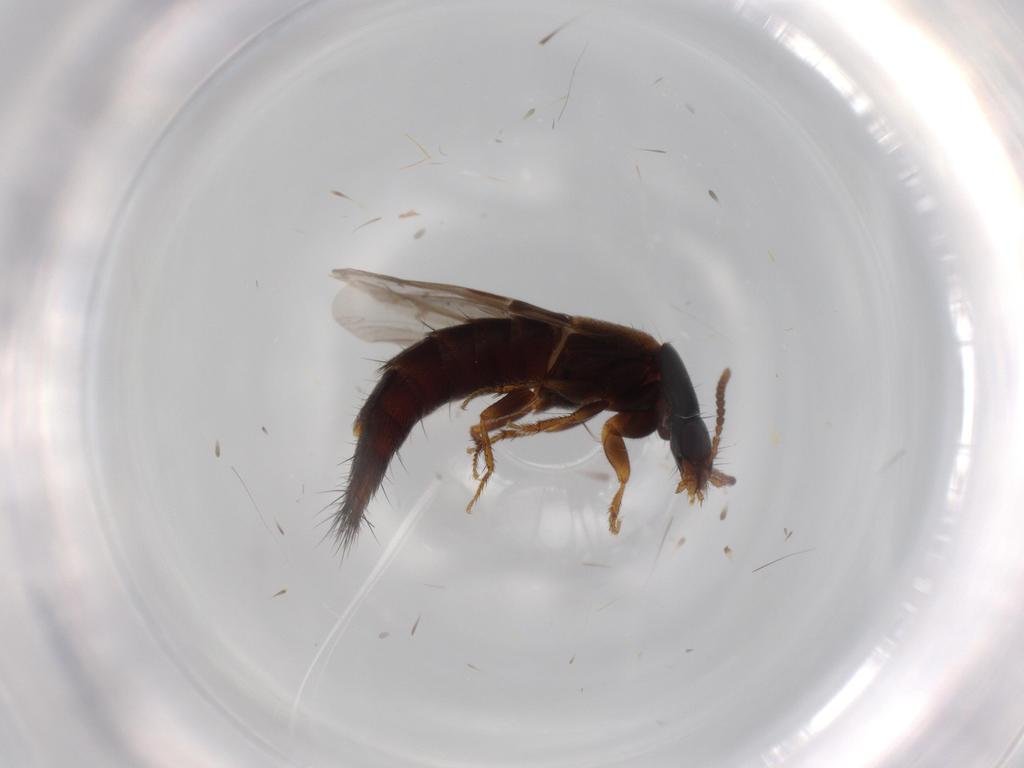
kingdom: Animalia
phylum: Arthropoda
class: Insecta
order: Coleoptera
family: Staphylinidae
